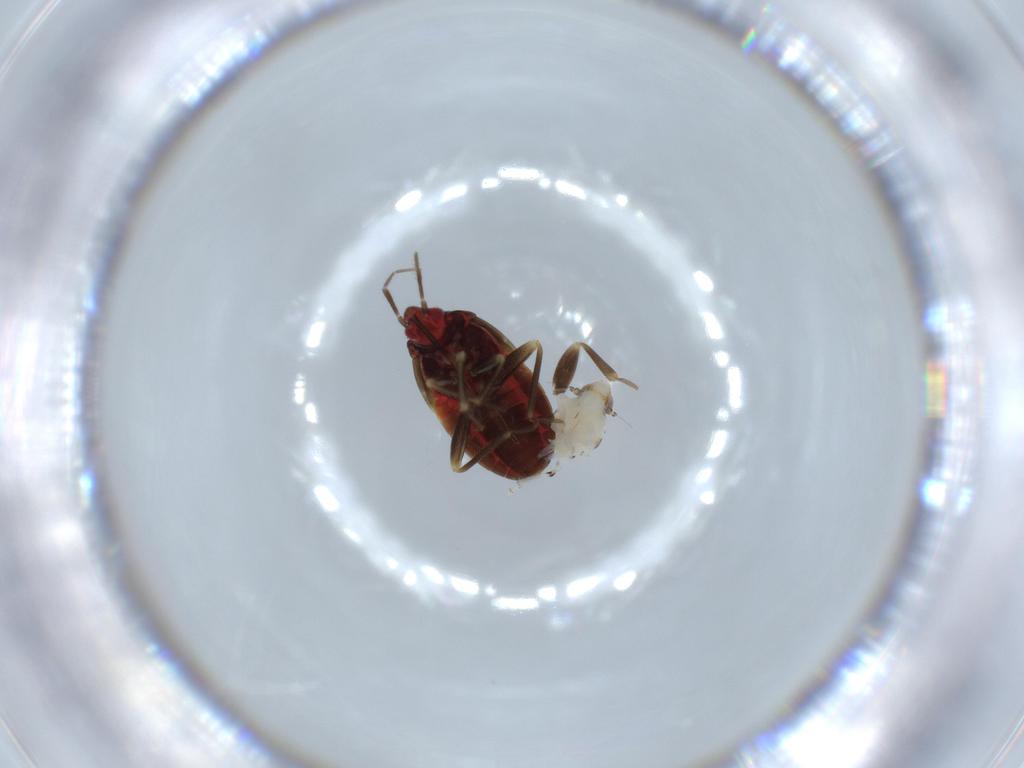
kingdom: Animalia
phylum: Arthropoda
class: Insecta
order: Hemiptera
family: Anthocoridae
